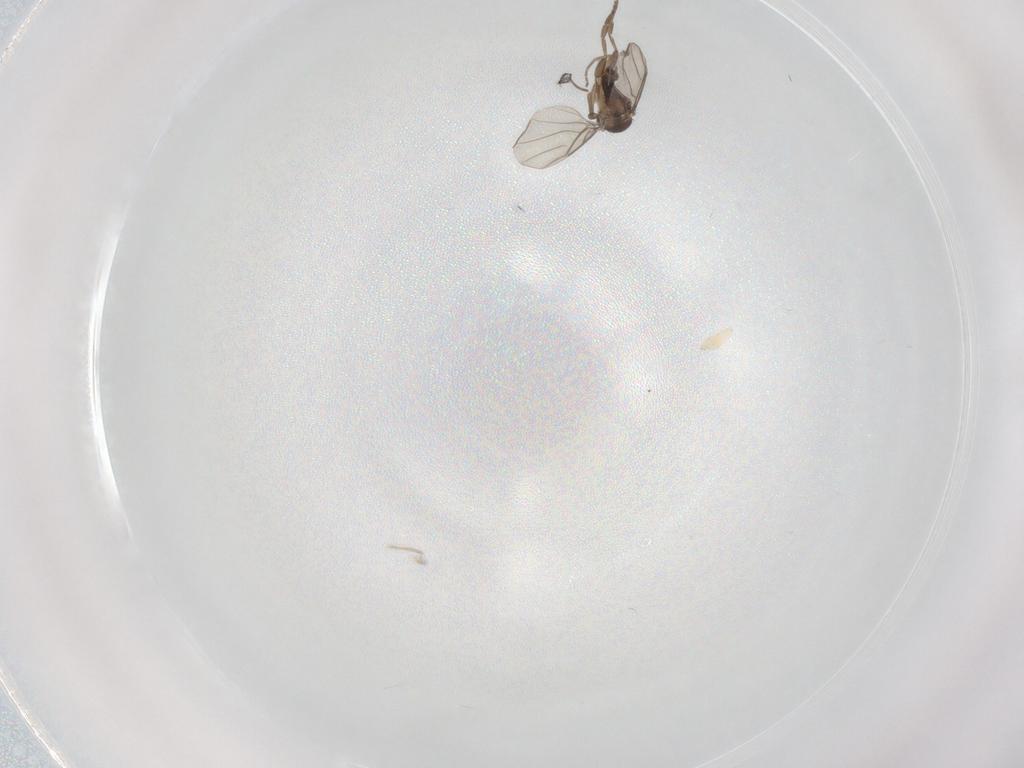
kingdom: Animalia
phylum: Arthropoda
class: Insecta
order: Diptera
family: Phoridae
